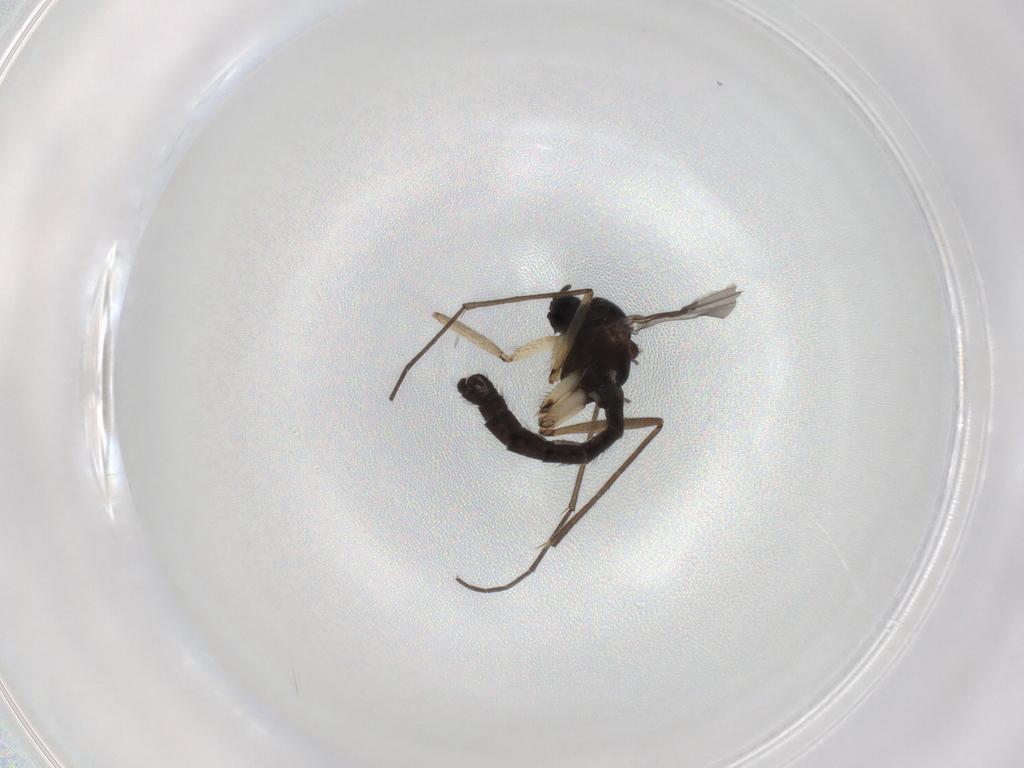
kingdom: Animalia
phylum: Arthropoda
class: Insecta
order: Diptera
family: Sciaridae
